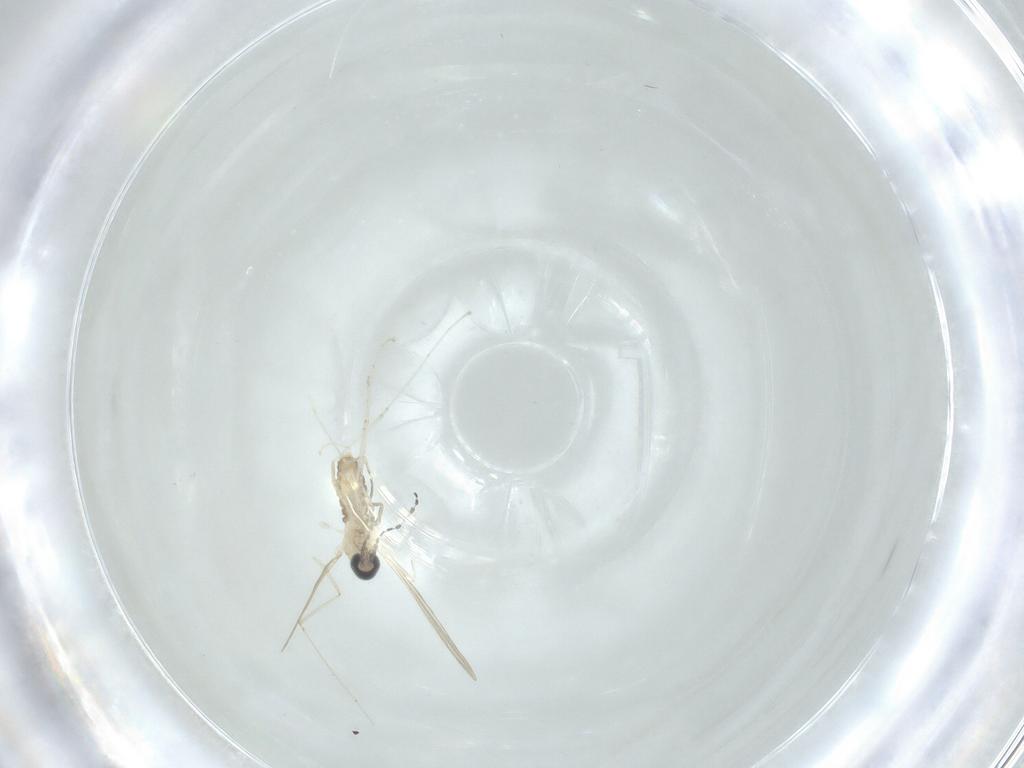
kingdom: Animalia
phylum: Arthropoda
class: Insecta
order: Diptera
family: Cecidomyiidae
